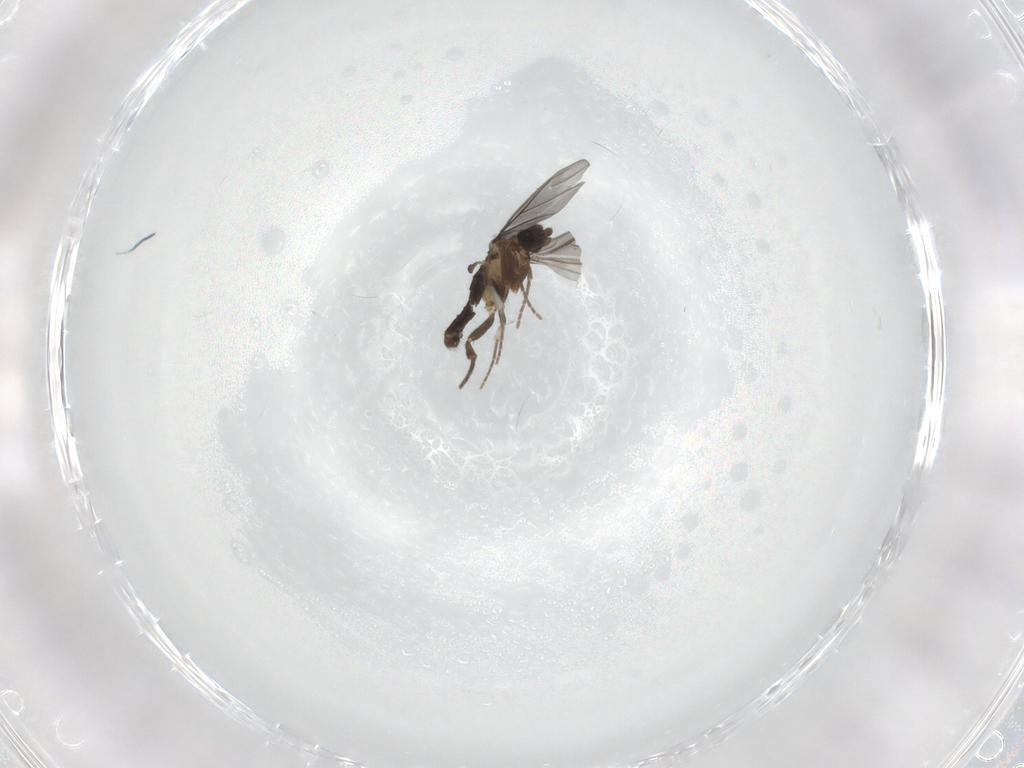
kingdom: Animalia
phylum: Arthropoda
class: Insecta
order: Diptera
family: Phoridae
